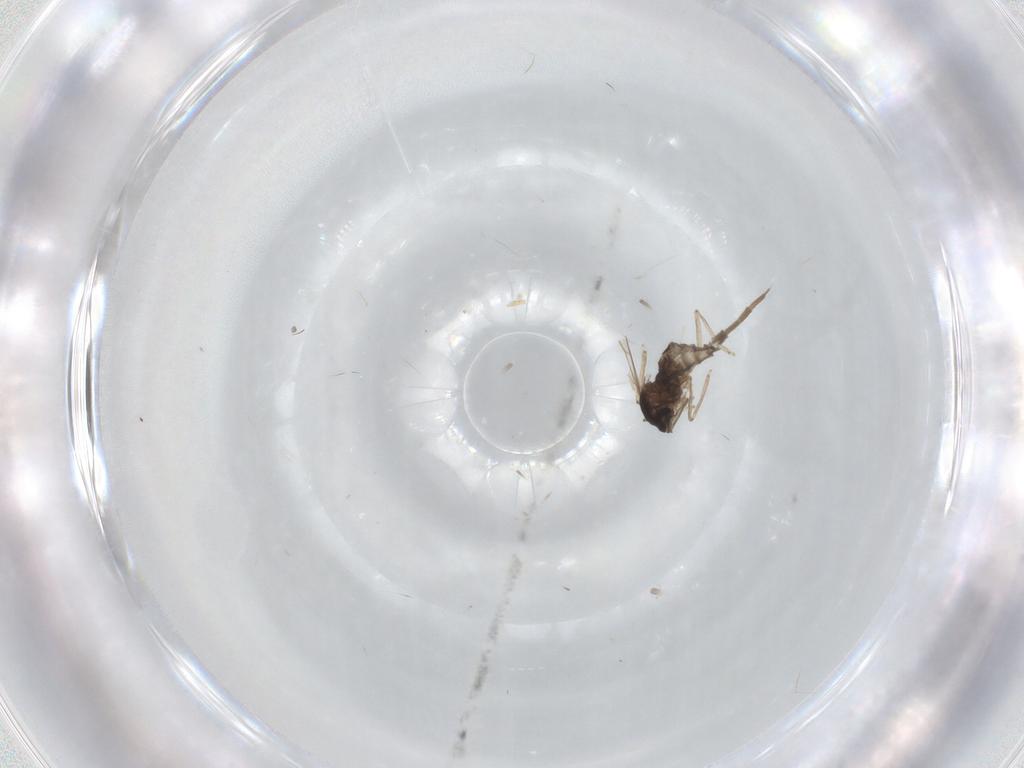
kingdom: Animalia
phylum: Arthropoda
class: Insecta
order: Diptera
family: Cecidomyiidae
